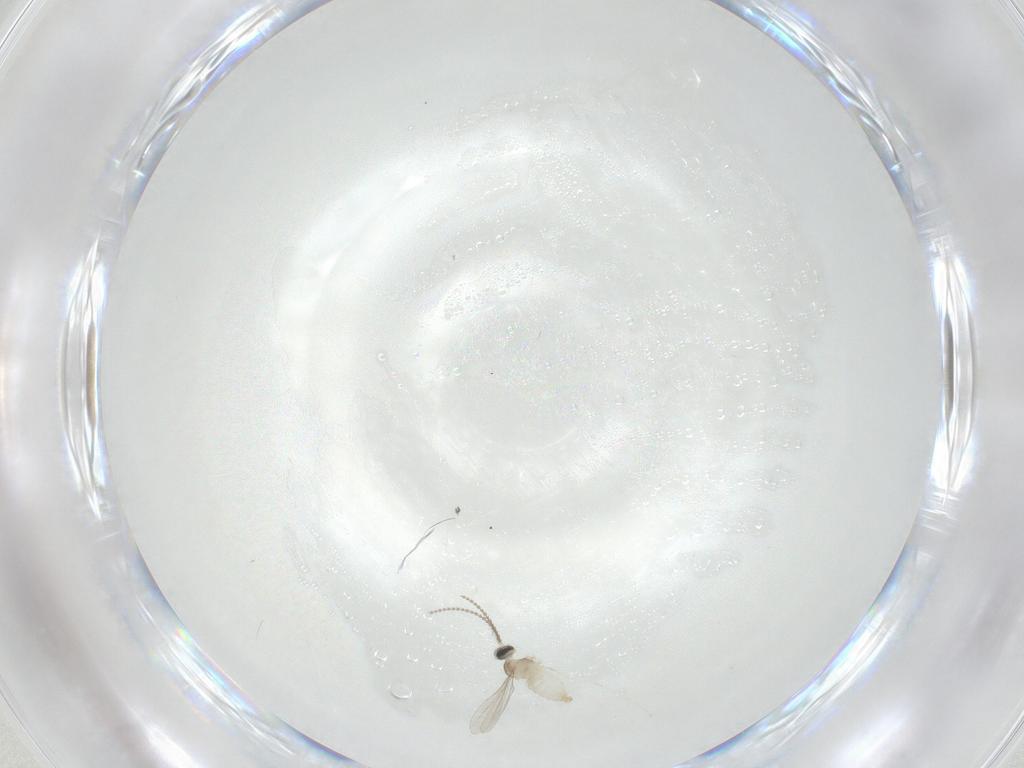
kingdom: Animalia
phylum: Arthropoda
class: Insecta
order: Diptera
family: Cecidomyiidae
